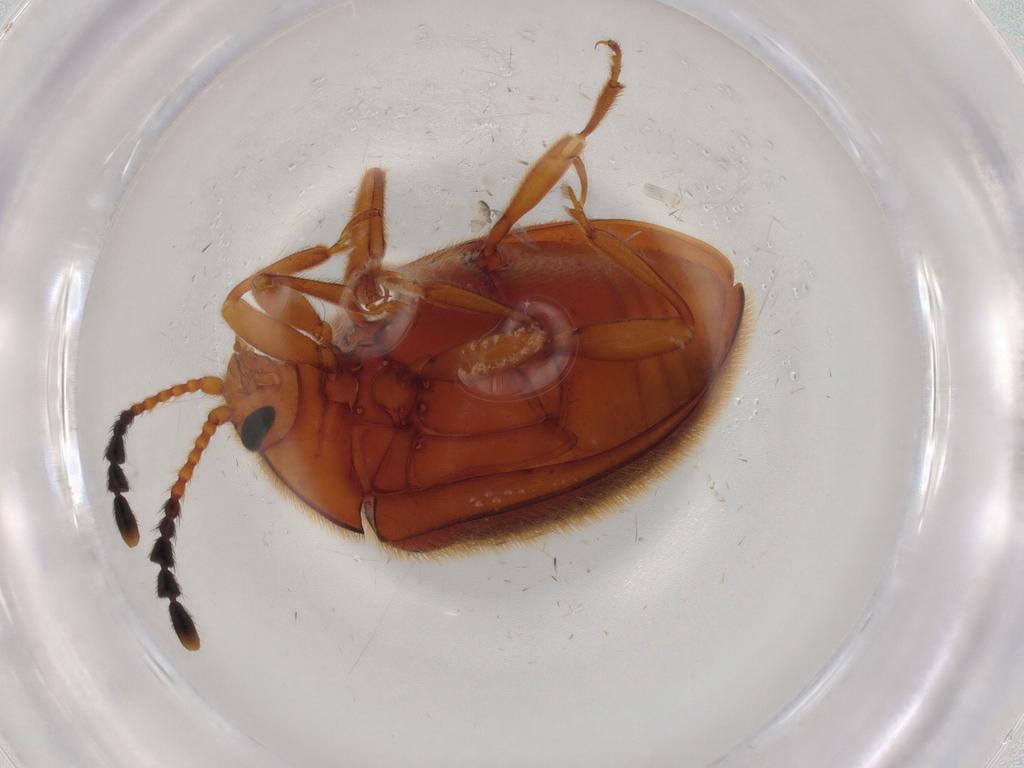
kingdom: Animalia
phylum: Arthropoda
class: Insecta
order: Coleoptera
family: Endomychidae
